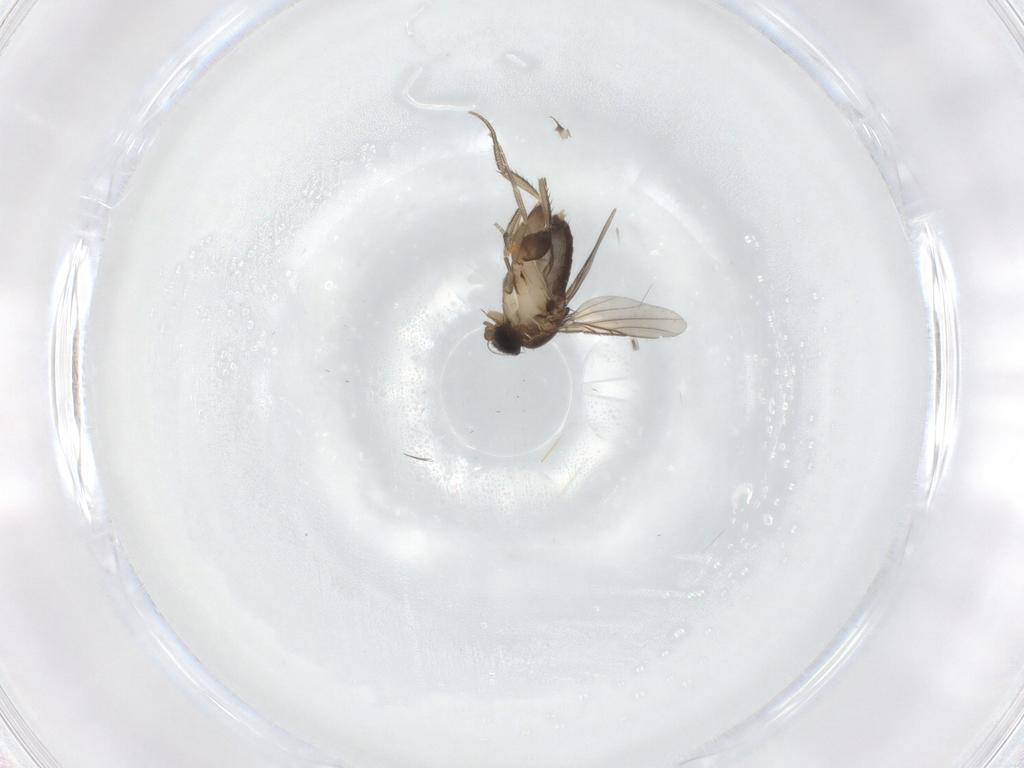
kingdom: Animalia
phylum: Arthropoda
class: Insecta
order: Diptera
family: Phoridae
